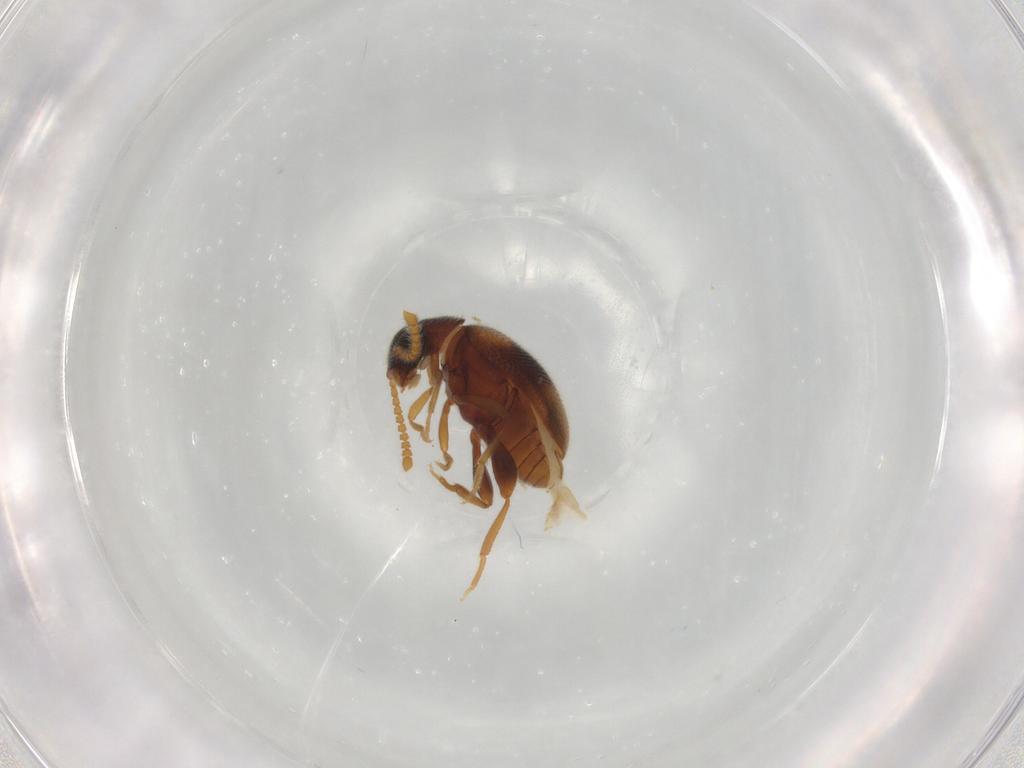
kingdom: Animalia
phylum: Arthropoda
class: Insecta
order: Coleoptera
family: Aderidae
